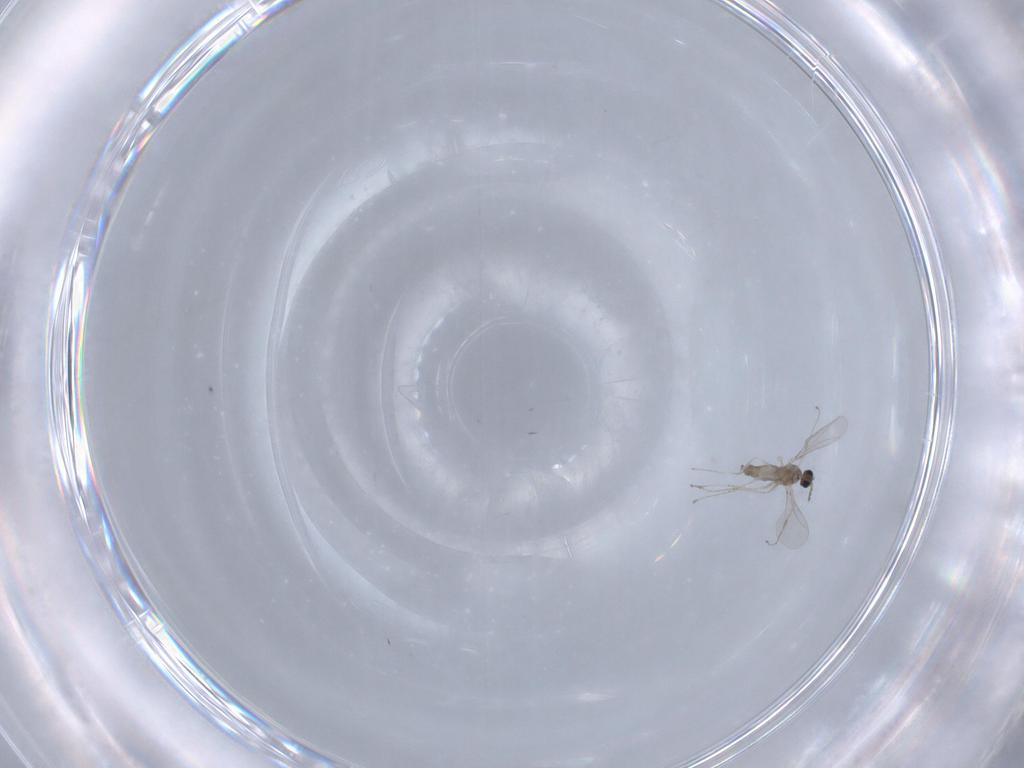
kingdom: Animalia
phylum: Arthropoda
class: Insecta
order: Diptera
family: Cecidomyiidae
